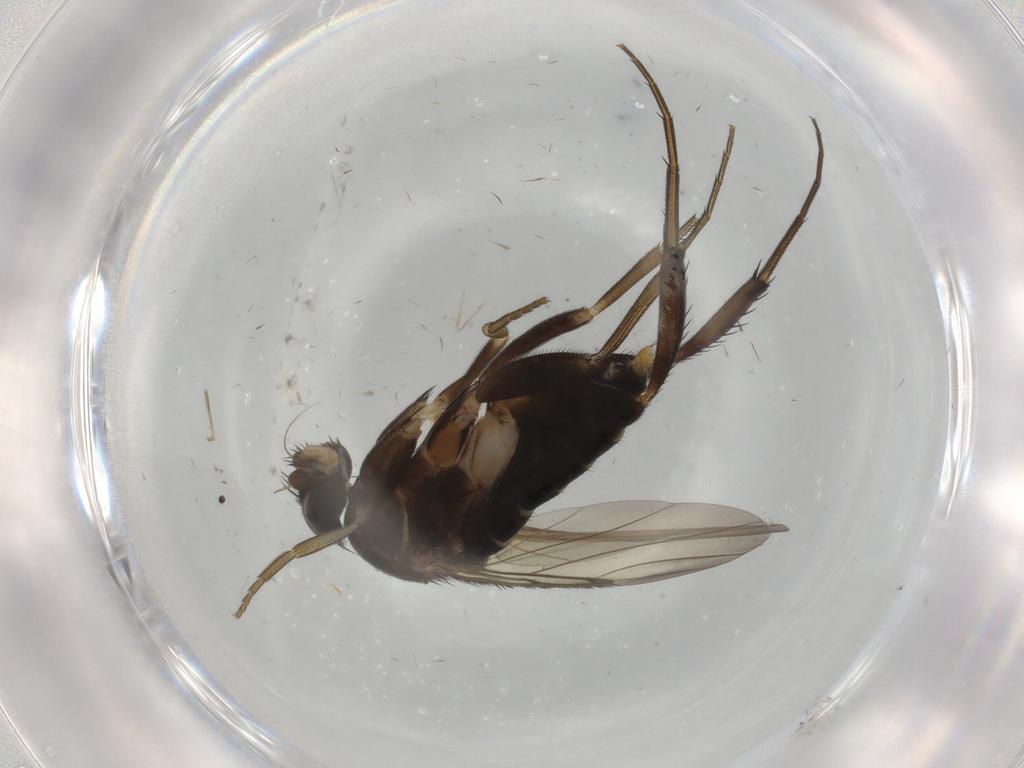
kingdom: Animalia
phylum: Arthropoda
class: Insecta
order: Diptera
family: Phoridae
